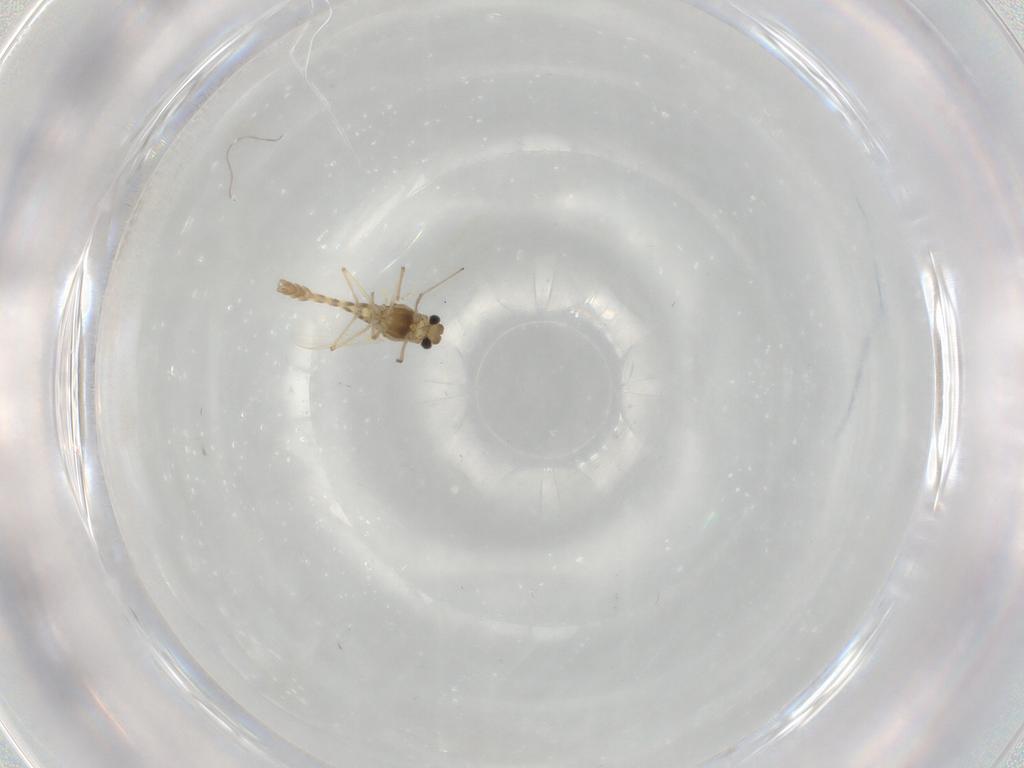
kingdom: Animalia
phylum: Arthropoda
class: Insecta
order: Diptera
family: Chironomidae
